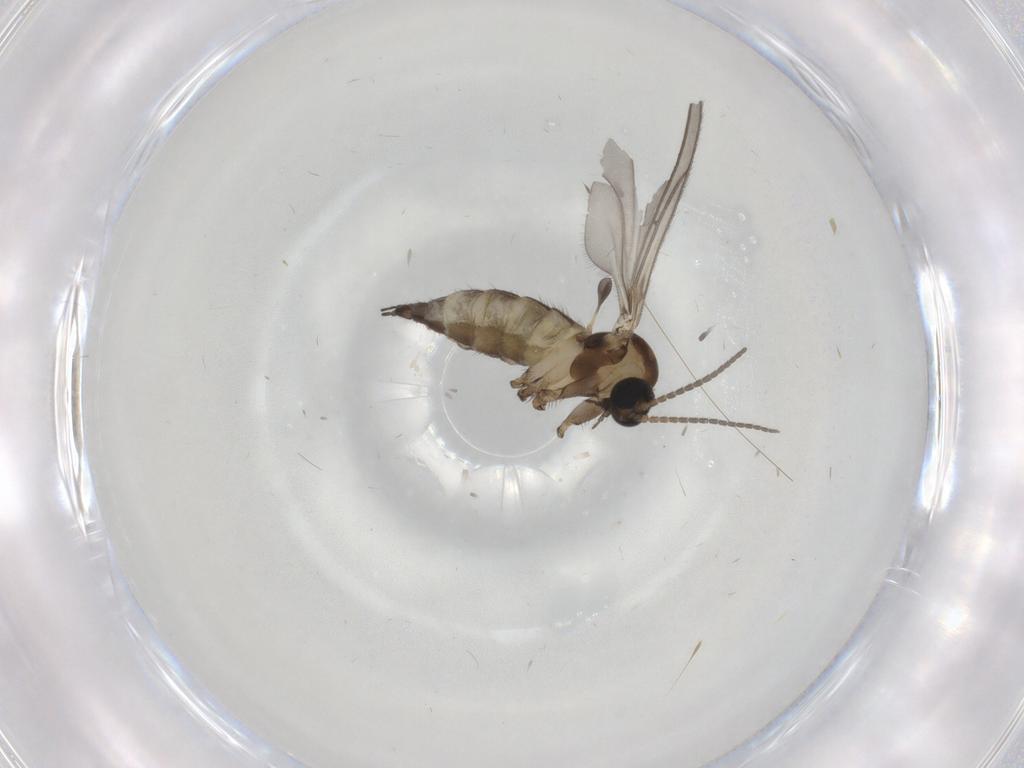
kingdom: Animalia
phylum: Arthropoda
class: Insecta
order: Diptera
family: Sciaridae
